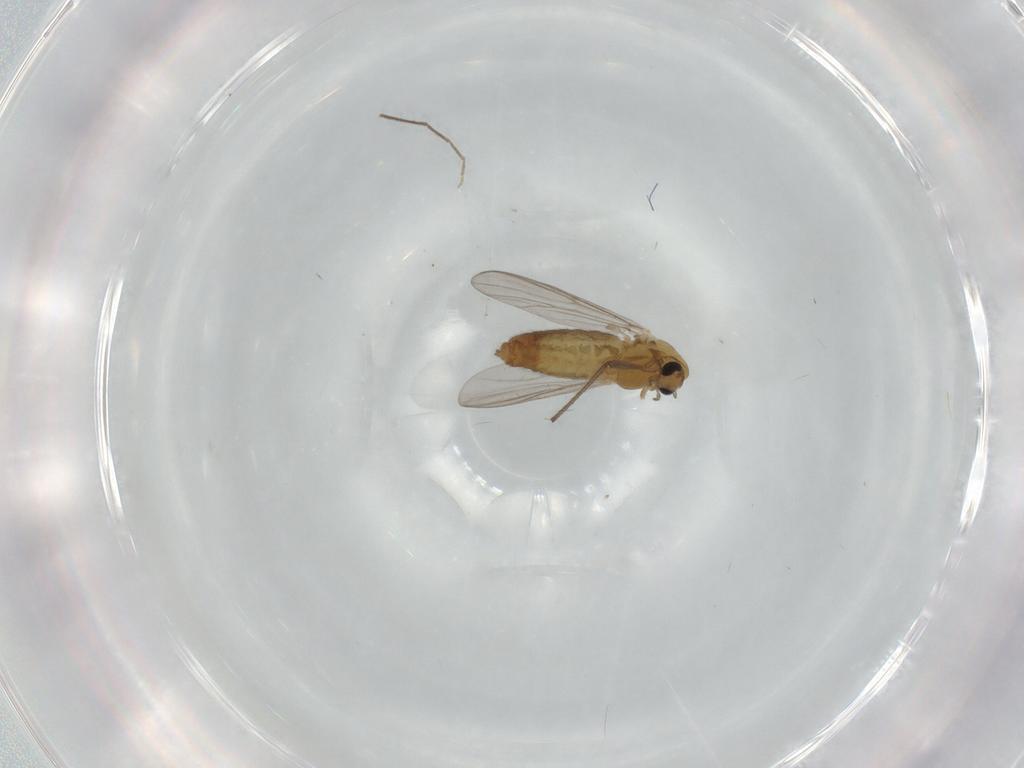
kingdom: Animalia
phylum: Arthropoda
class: Insecta
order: Diptera
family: Chironomidae
